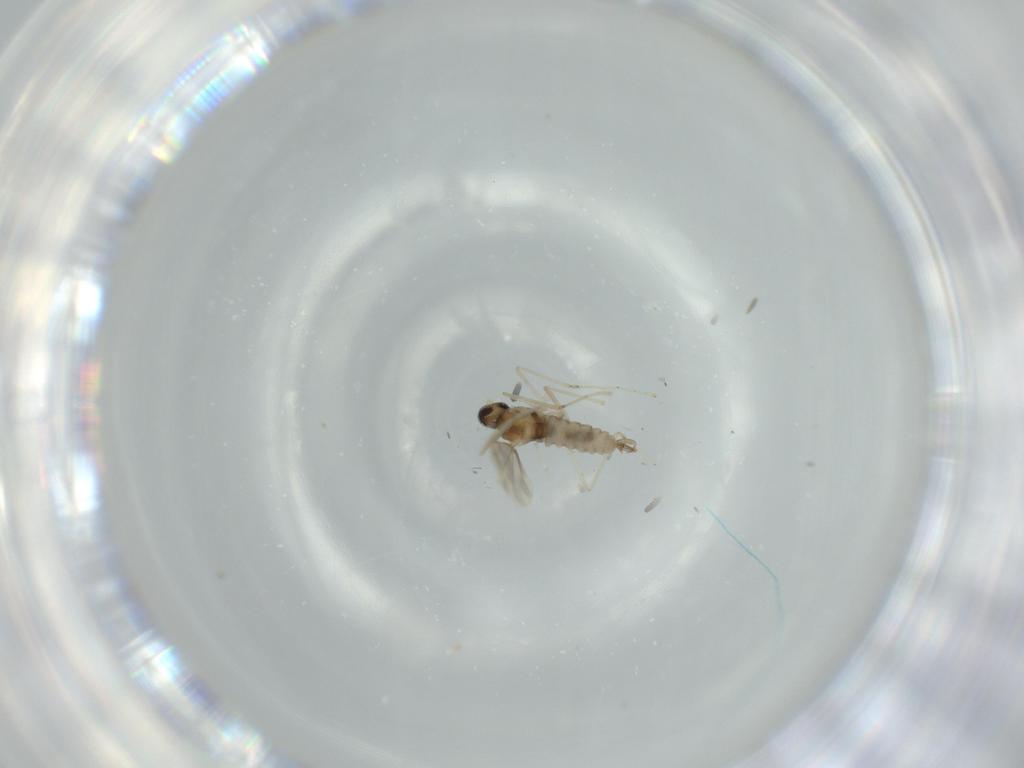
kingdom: Animalia
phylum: Arthropoda
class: Insecta
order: Diptera
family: Cecidomyiidae
